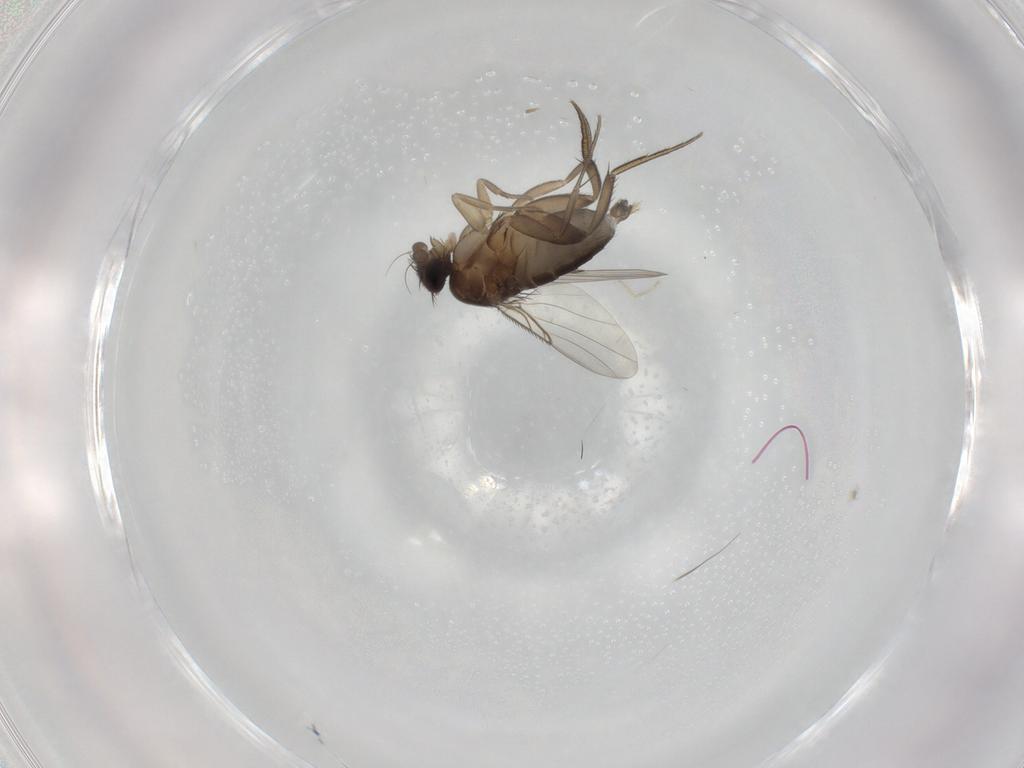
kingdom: Animalia
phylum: Arthropoda
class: Insecta
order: Diptera
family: Phoridae
